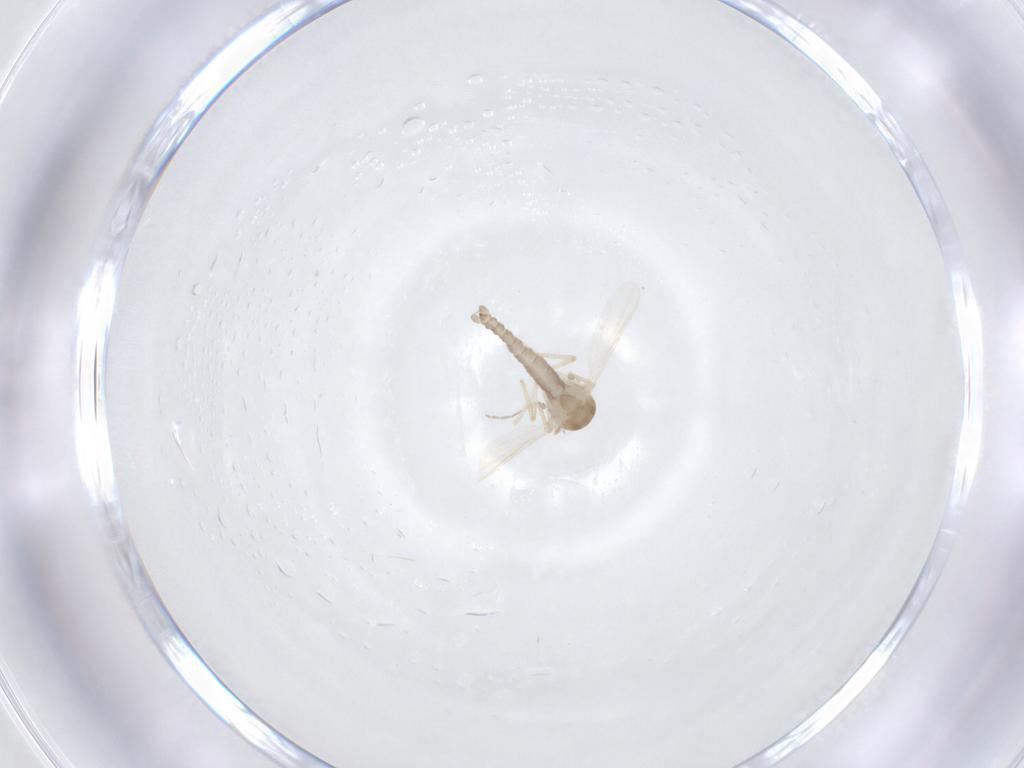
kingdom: Animalia
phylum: Arthropoda
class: Insecta
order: Diptera
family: Ceratopogonidae
